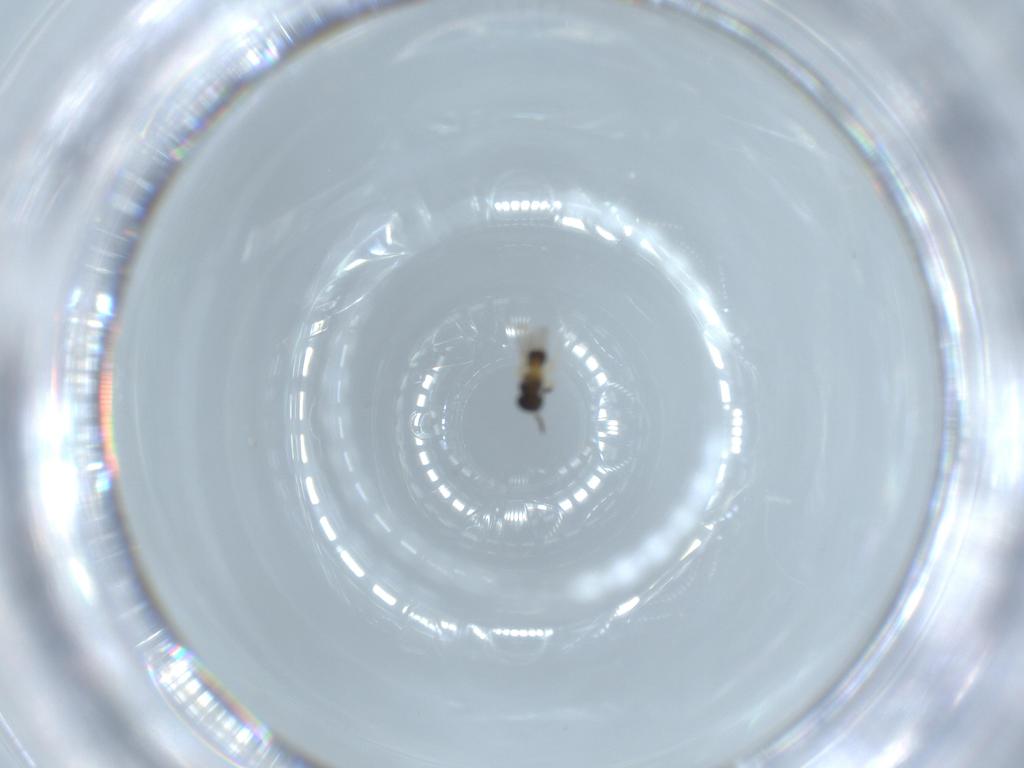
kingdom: Animalia
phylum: Arthropoda
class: Insecta
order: Hymenoptera
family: Scelionidae
